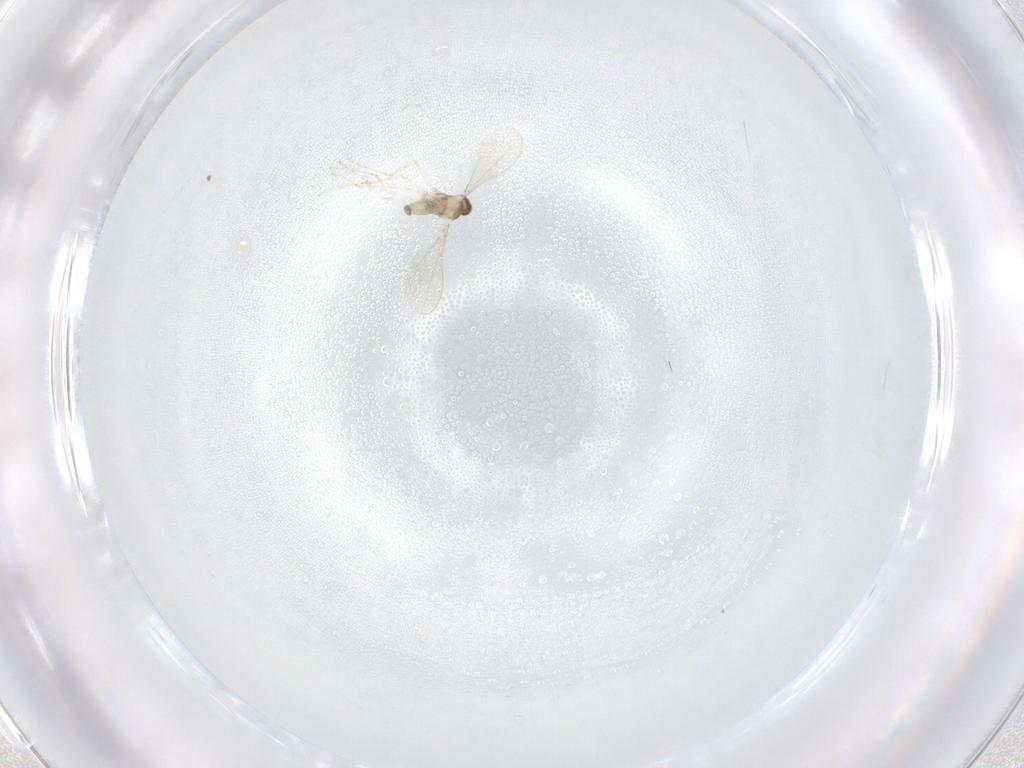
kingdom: Animalia
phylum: Arthropoda
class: Insecta
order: Diptera
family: Cecidomyiidae
